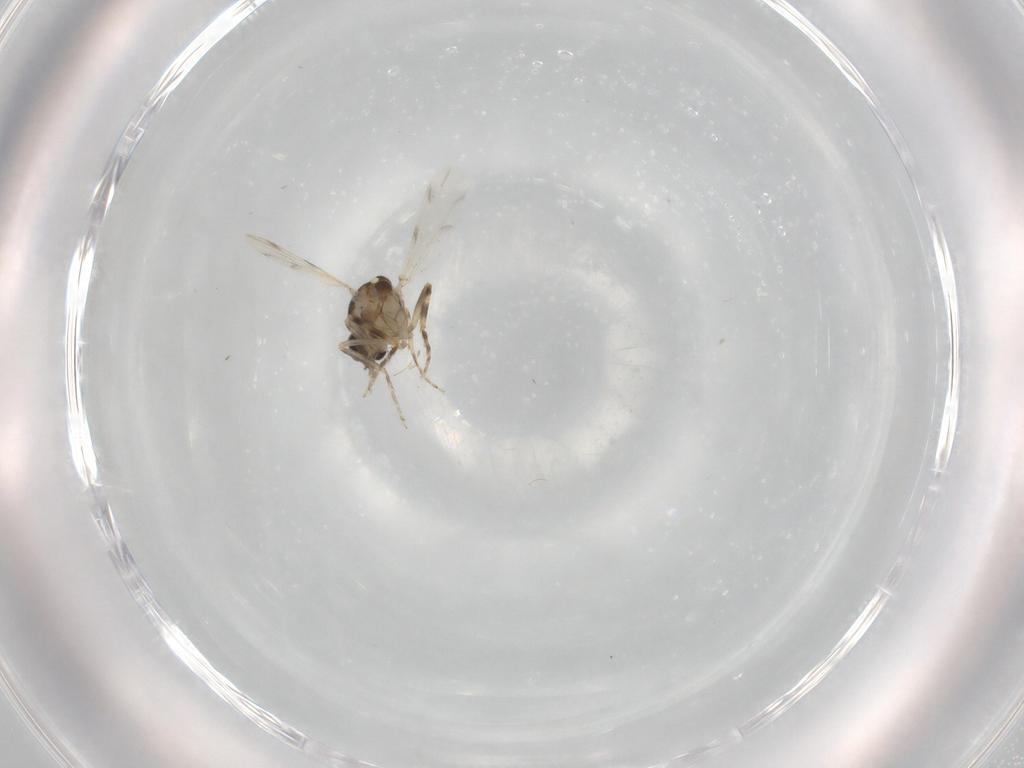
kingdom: Animalia
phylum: Arthropoda
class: Insecta
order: Diptera
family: Ceratopogonidae
